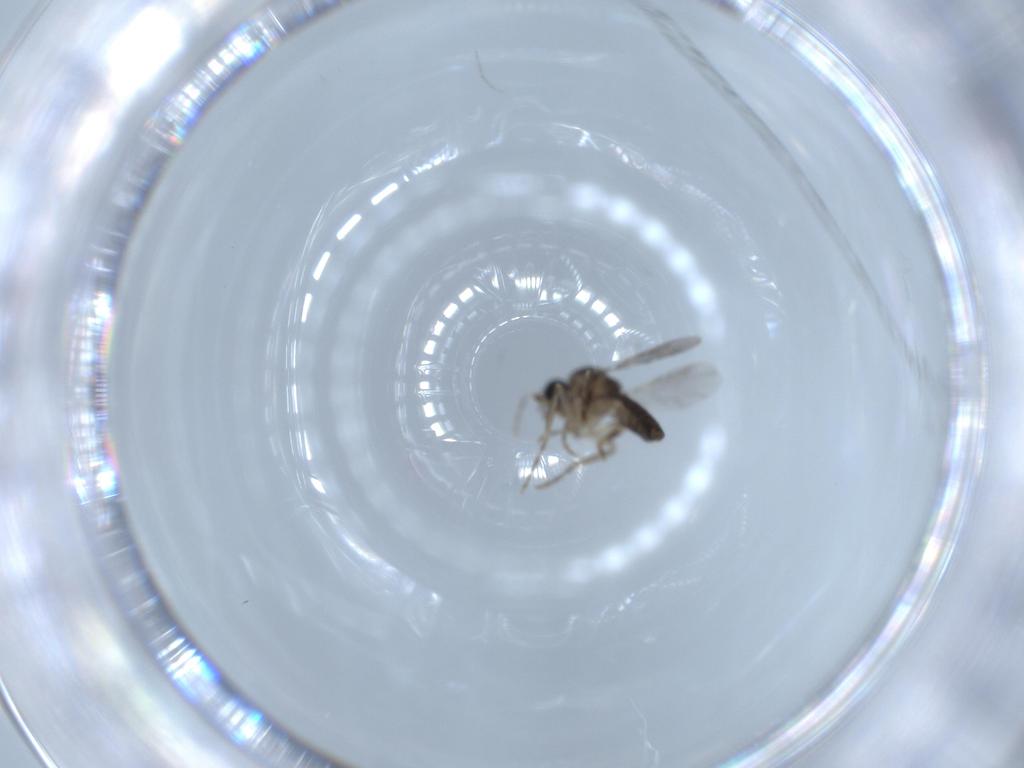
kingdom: Animalia
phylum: Arthropoda
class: Insecta
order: Diptera
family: Ceratopogonidae
